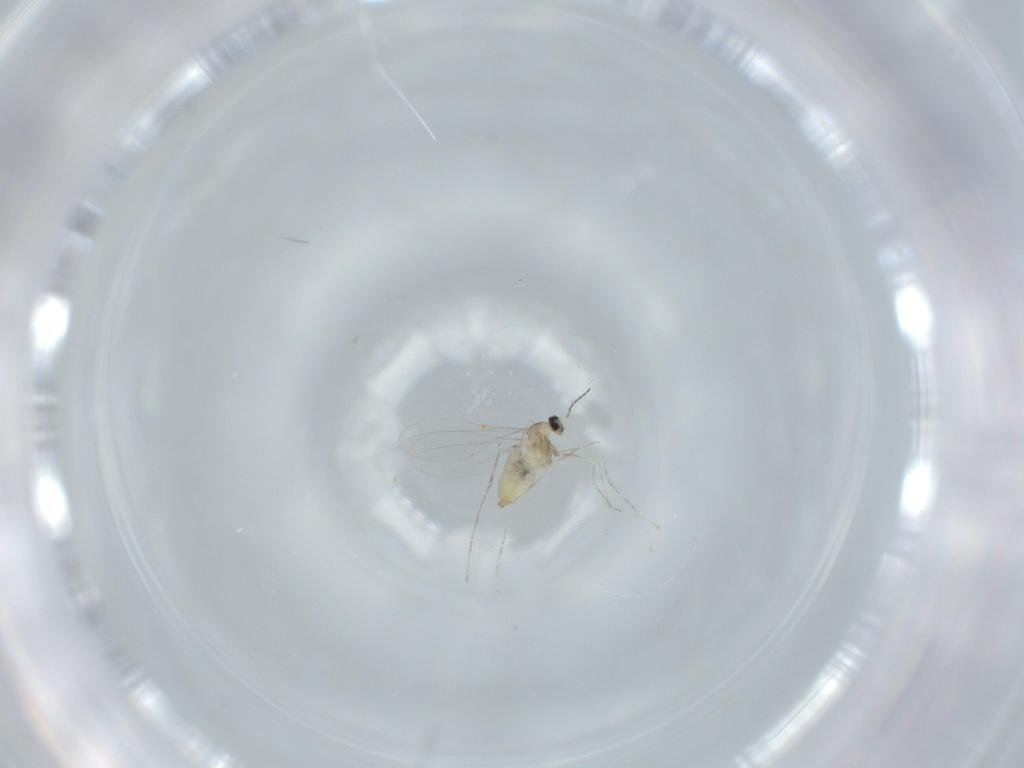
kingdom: Animalia
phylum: Arthropoda
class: Insecta
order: Diptera
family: Cecidomyiidae
